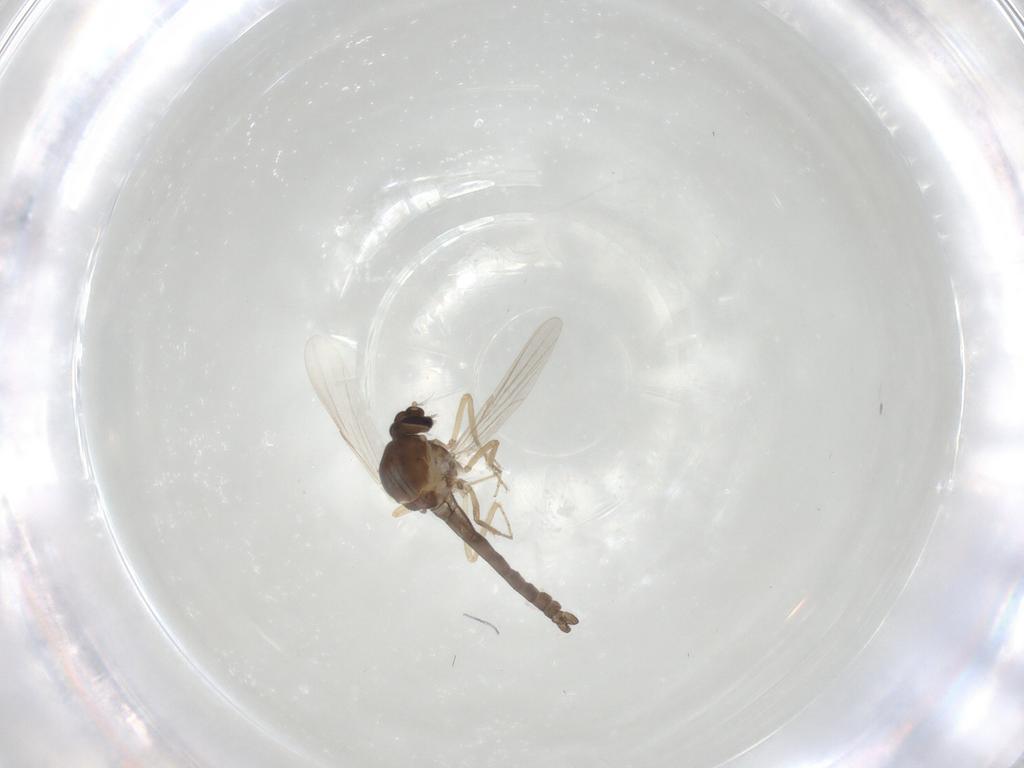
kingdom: Animalia
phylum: Arthropoda
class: Insecta
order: Diptera
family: Ceratopogonidae
